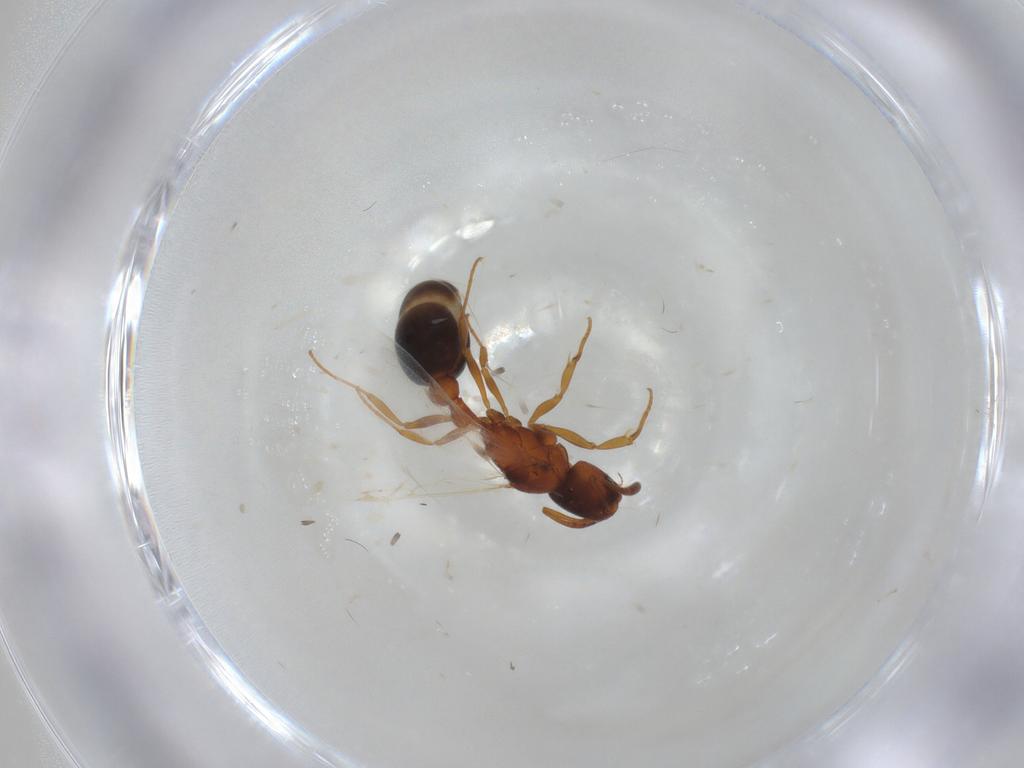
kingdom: Animalia
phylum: Arthropoda
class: Insecta
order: Hymenoptera
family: Formicidae
